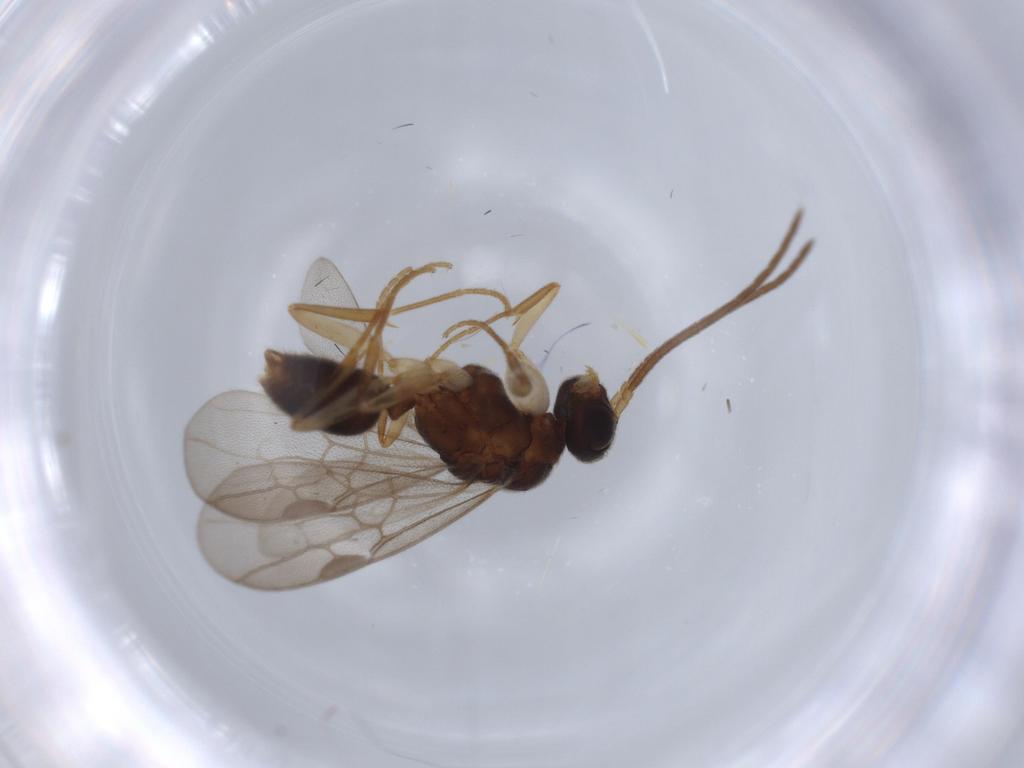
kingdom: Animalia
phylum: Arthropoda
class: Insecta
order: Hymenoptera
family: Formicidae
